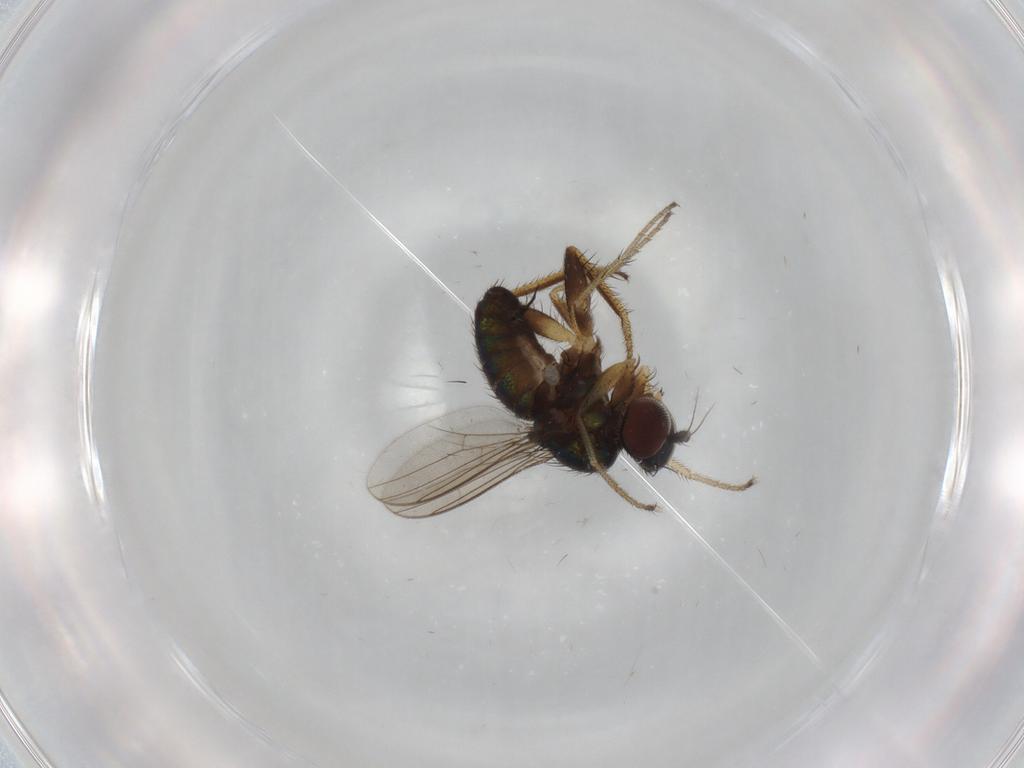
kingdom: Animalia
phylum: Arthropoda
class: Insecta
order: Diptera
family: Dolichopodidae
